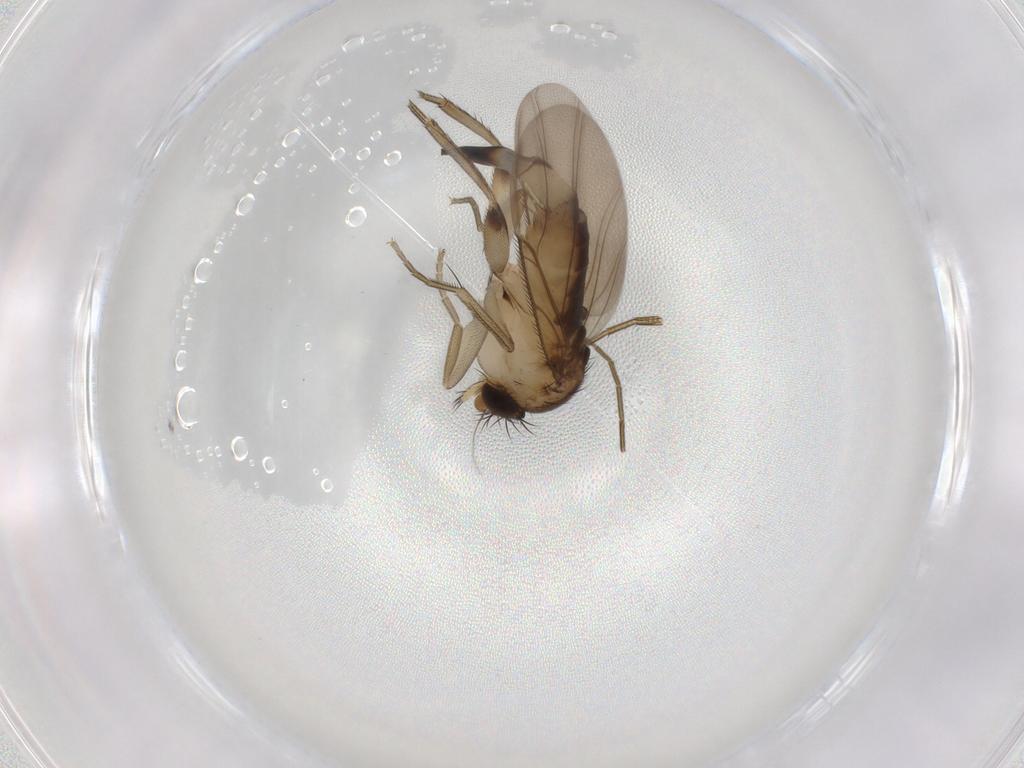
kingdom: Animalia
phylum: Arthropoda
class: Insecta
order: Diptera
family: Phoridae
